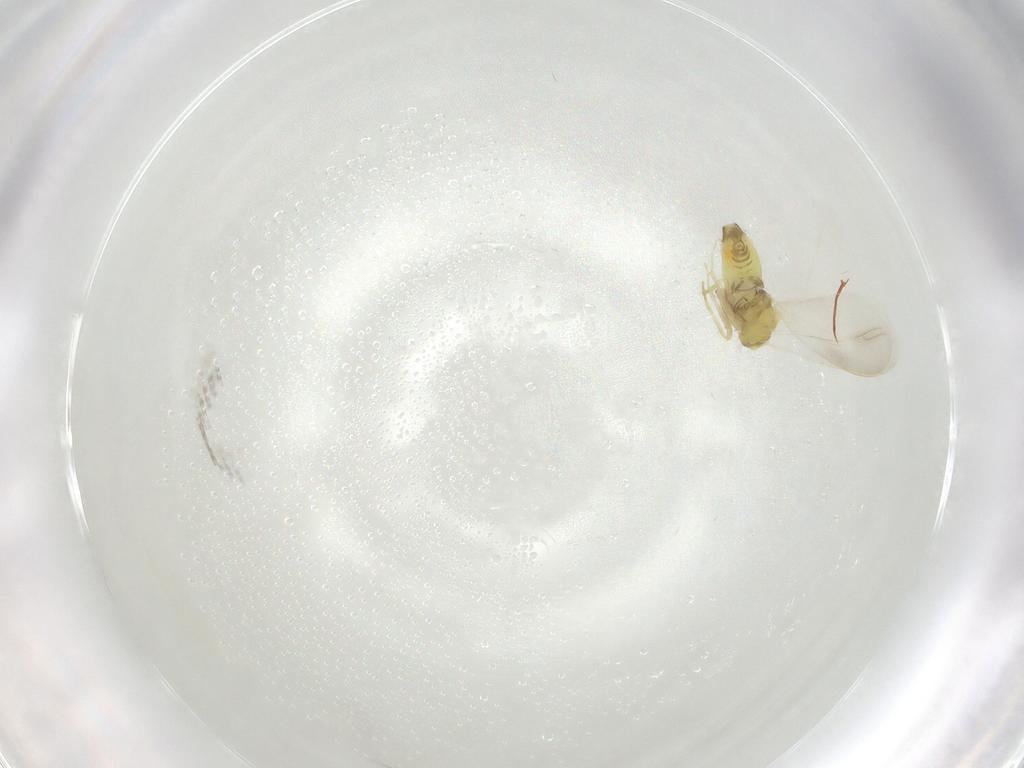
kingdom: Animalia
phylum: Arthropoda
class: Insecta
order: Hemiptera
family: Aleyrodidae
